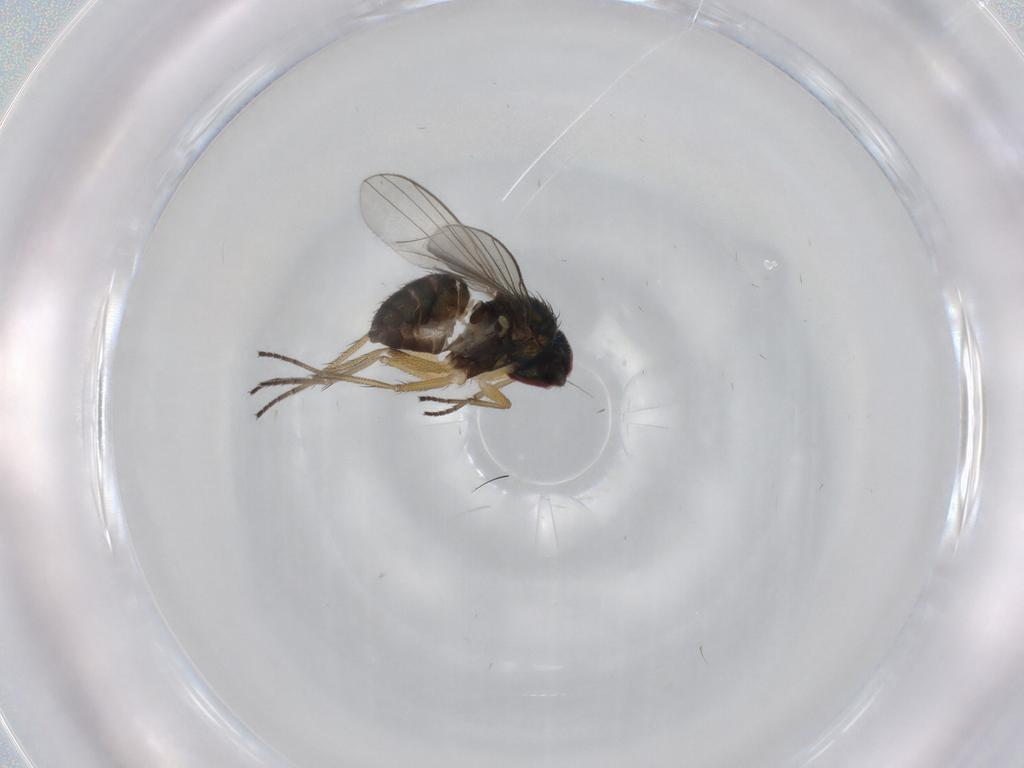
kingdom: Animalia
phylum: Arthropoda
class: Insecta
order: Diptera
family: Dolichopodidae
